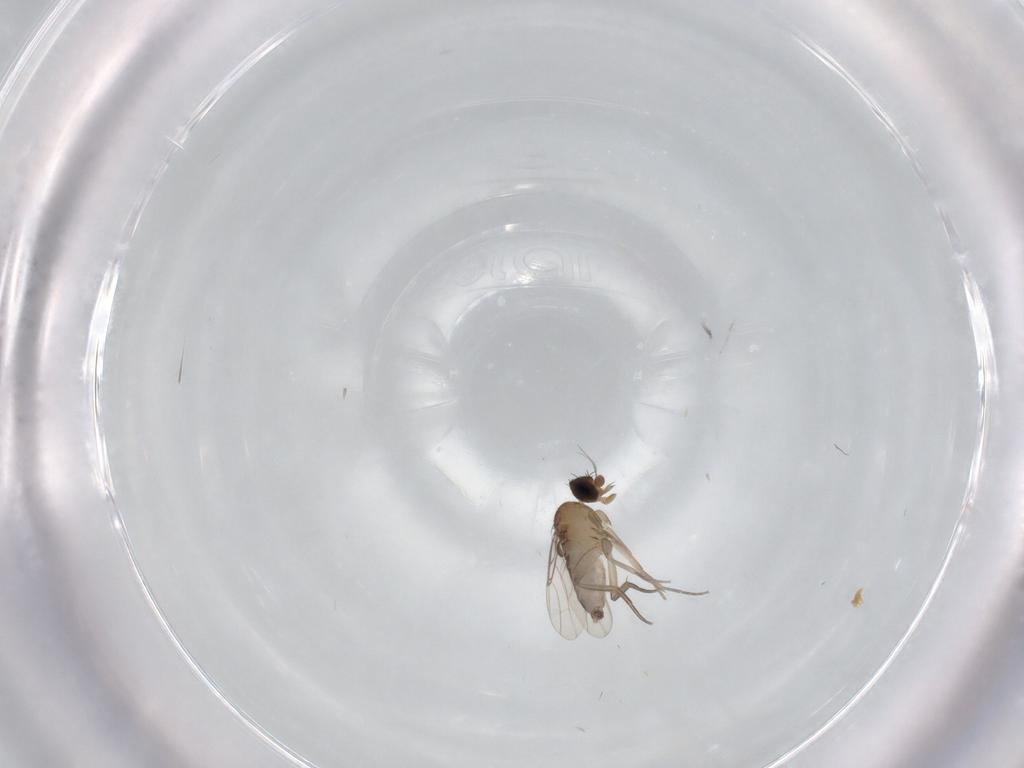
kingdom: Animalia
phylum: Arthropoda
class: Insecta
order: Diptera
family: Phoridae
